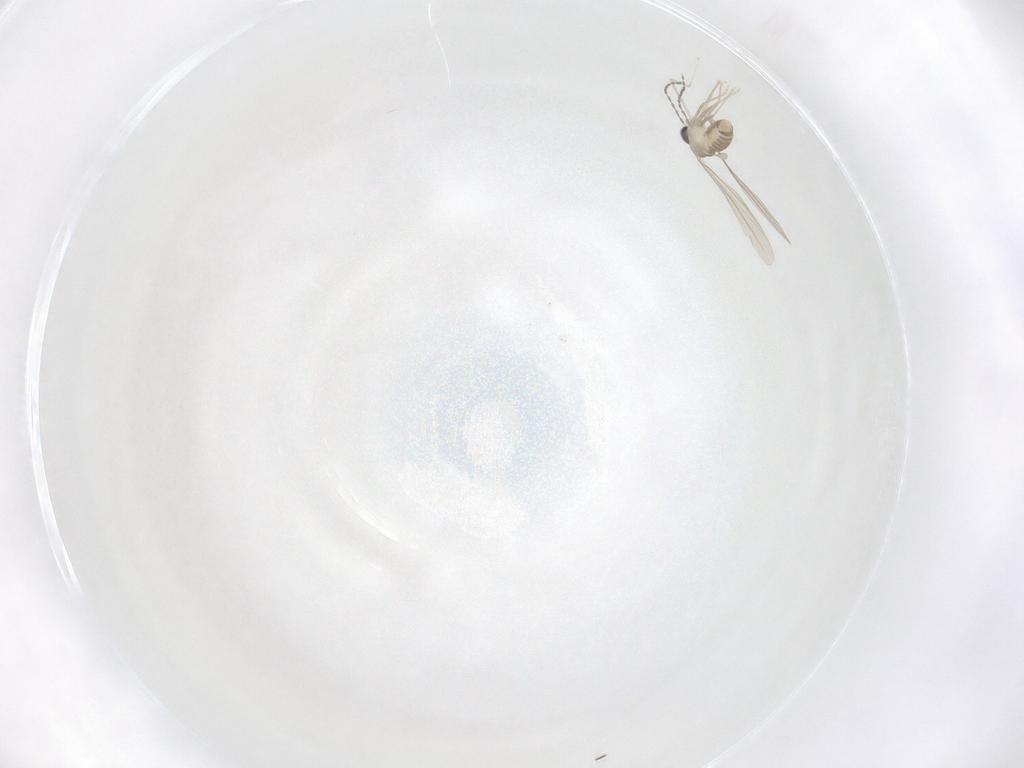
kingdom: Animalia
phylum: Arthropoda
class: Insecta
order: Diptera
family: Cecidomyiidae
